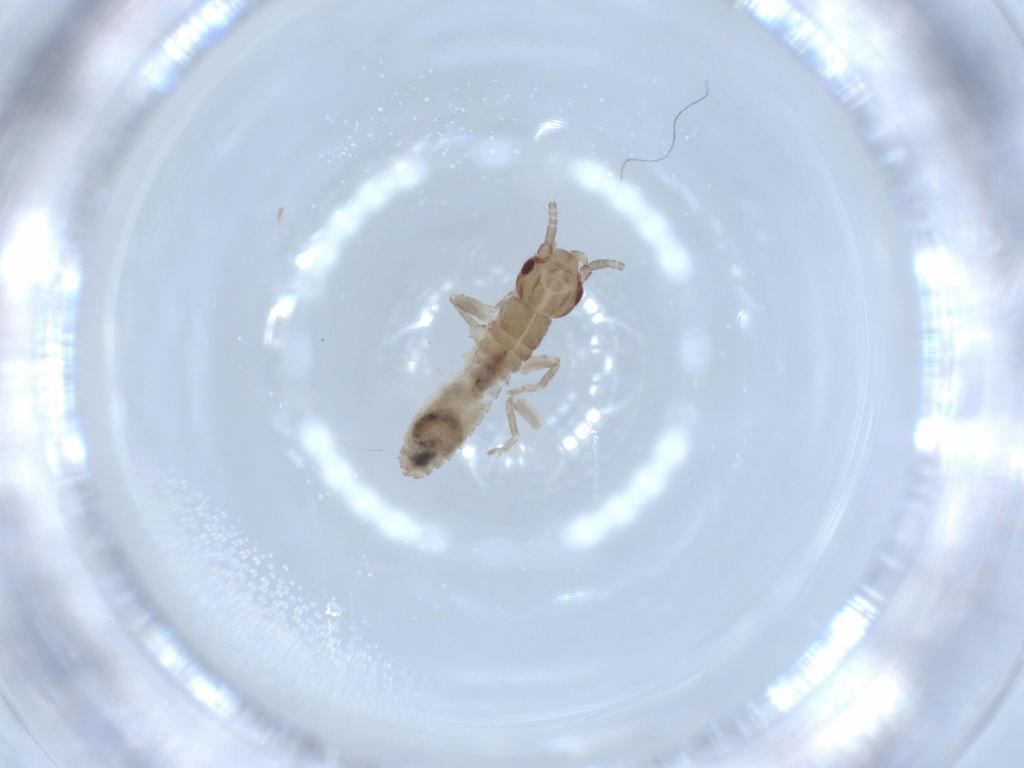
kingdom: Animalia
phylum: Arthropoda
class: Insecta
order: Orthoptera
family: Mogoplistidae
